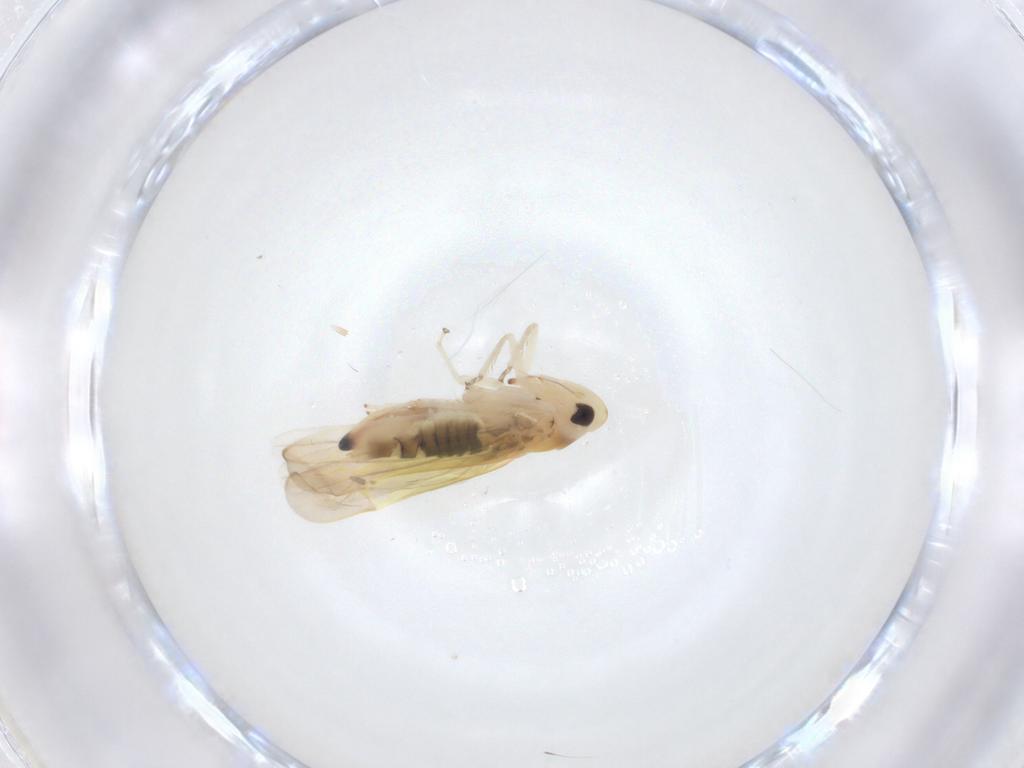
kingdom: Animalia
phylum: Arthropoda
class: Insecta
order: Hemiptera
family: Cicadellidae
